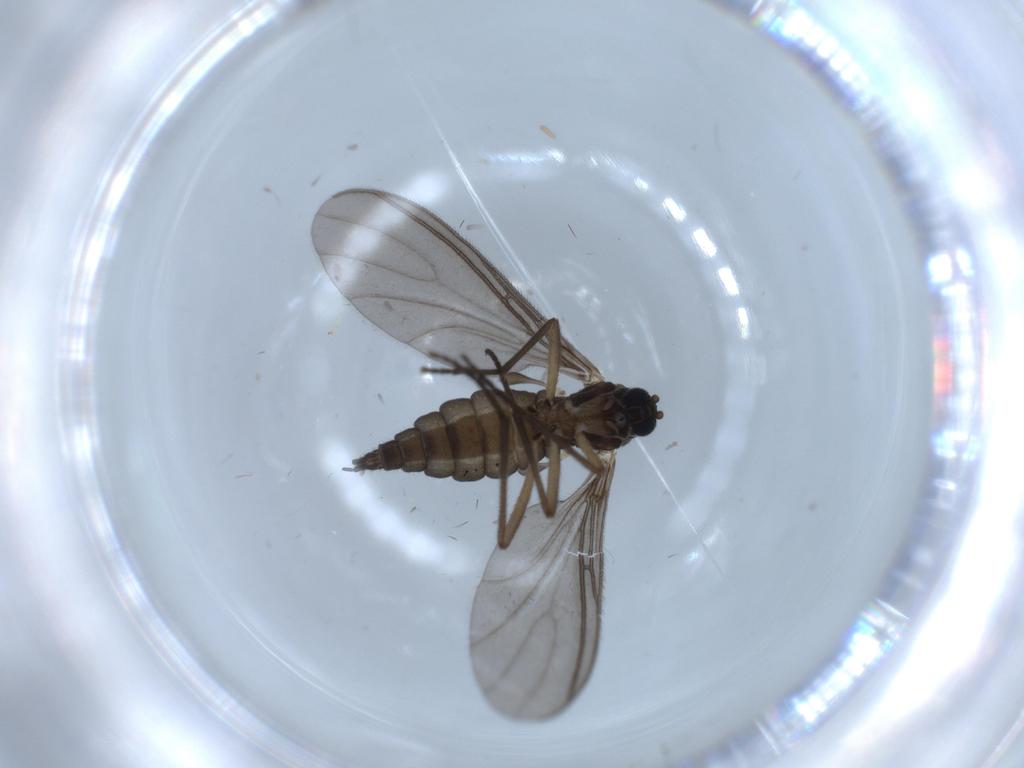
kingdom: Animalia
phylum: Arthropoda
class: Insecta
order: Diptera
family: Sciaridae
